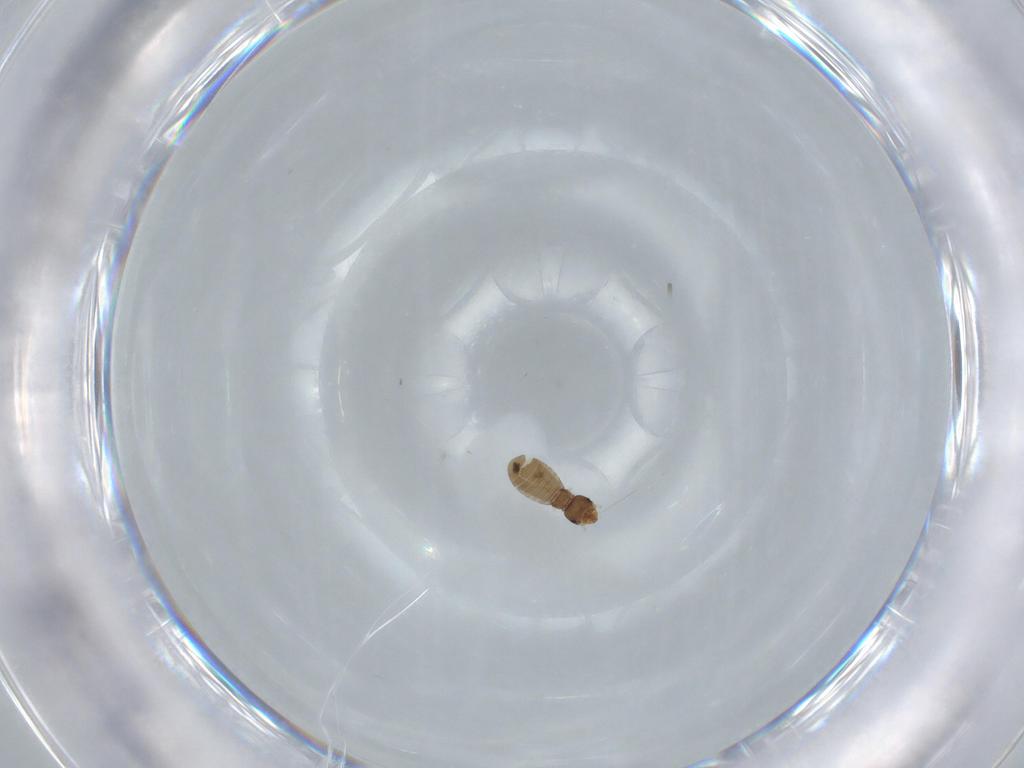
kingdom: Animalia
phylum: Arthropoda
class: Insecta
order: Psocodea
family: Liposcelididae
